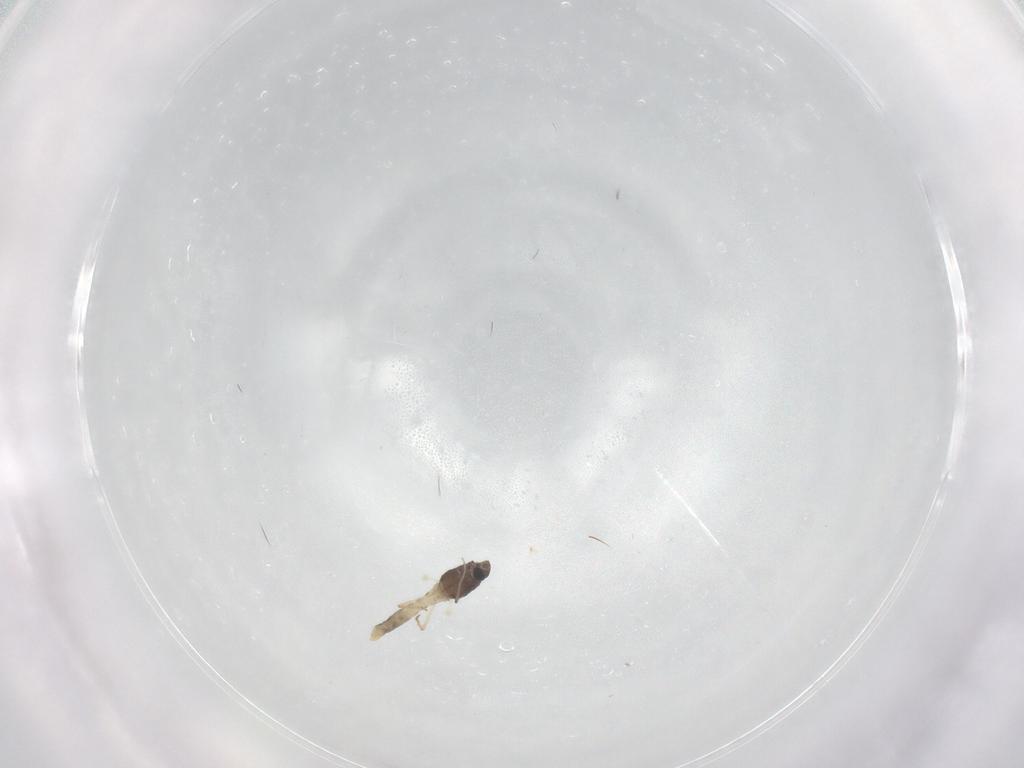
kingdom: Animalia
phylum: Arthropoda
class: Insecta
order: Diptera
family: Chironomidae
